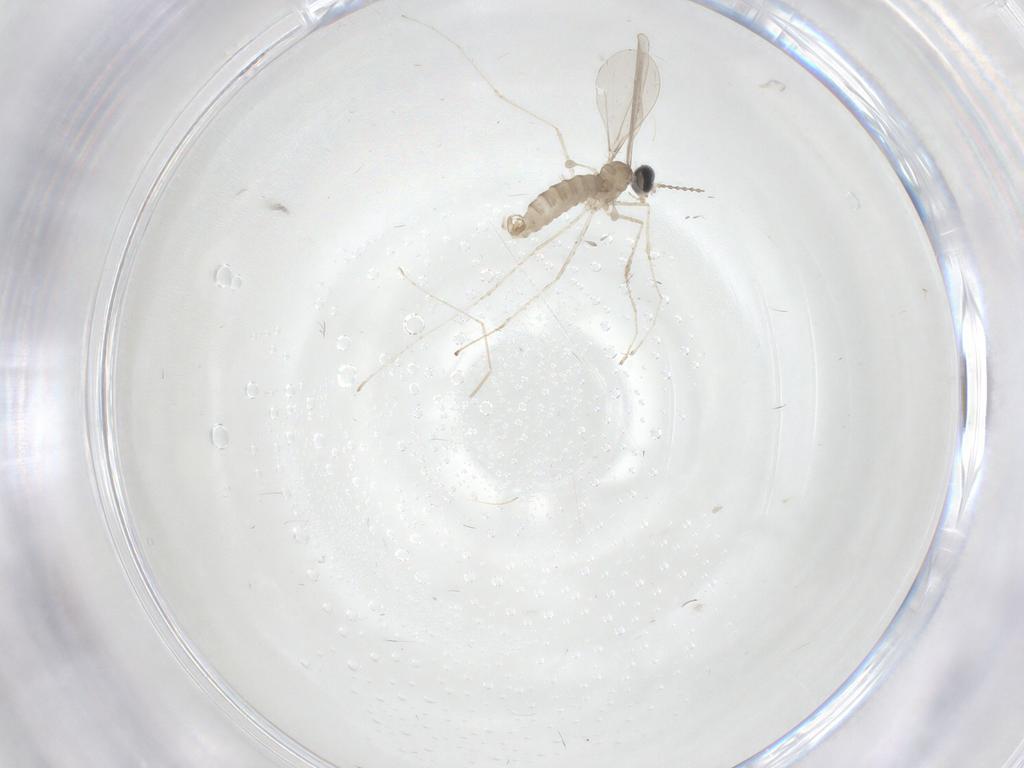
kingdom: Animalia
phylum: Arthropoda
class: Insecta
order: Diptera
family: Cecidomyiidae
